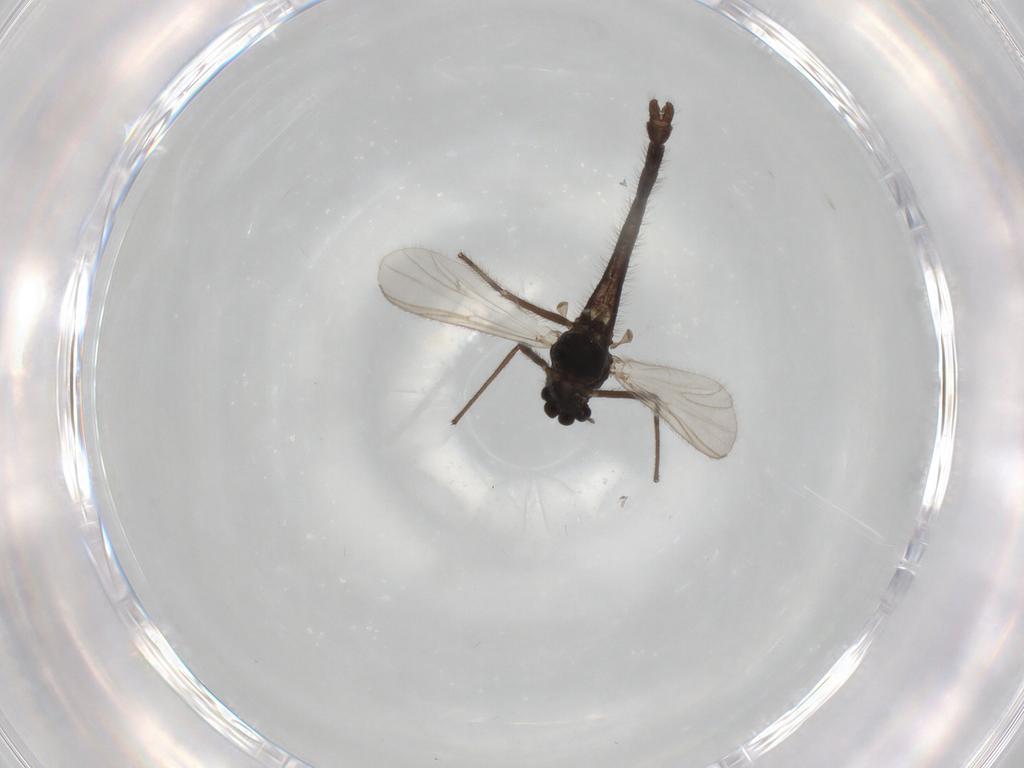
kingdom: Animalia
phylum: Arthropoda
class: Insecta
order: Diptera
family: Chironomidae
